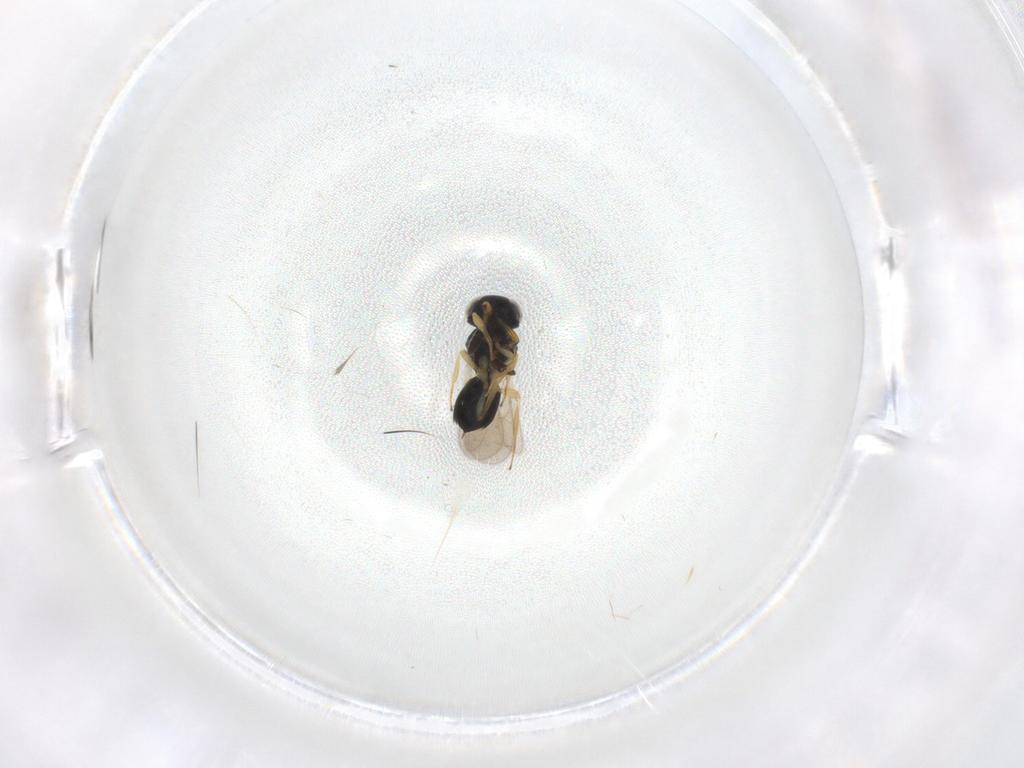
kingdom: Animalia
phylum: Arthropoda
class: Insecta
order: Hymenoptera
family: Scelionidae
